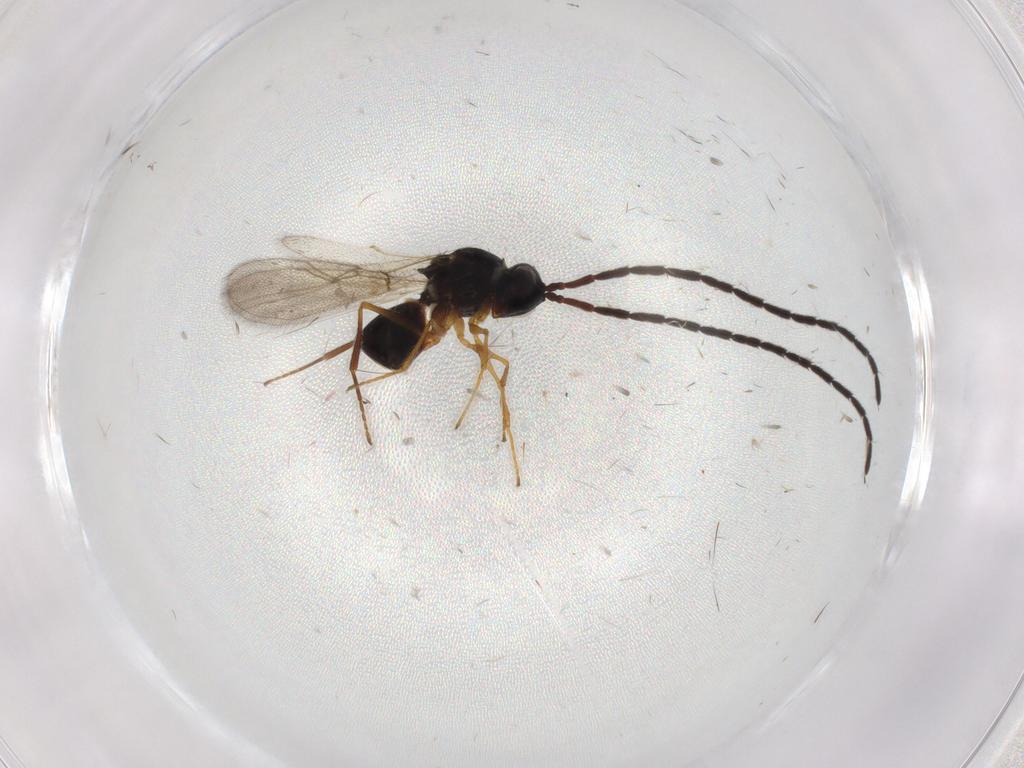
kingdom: Animalia
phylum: Arthropoda
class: Insecta
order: Hymenoptera
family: Figitidae
